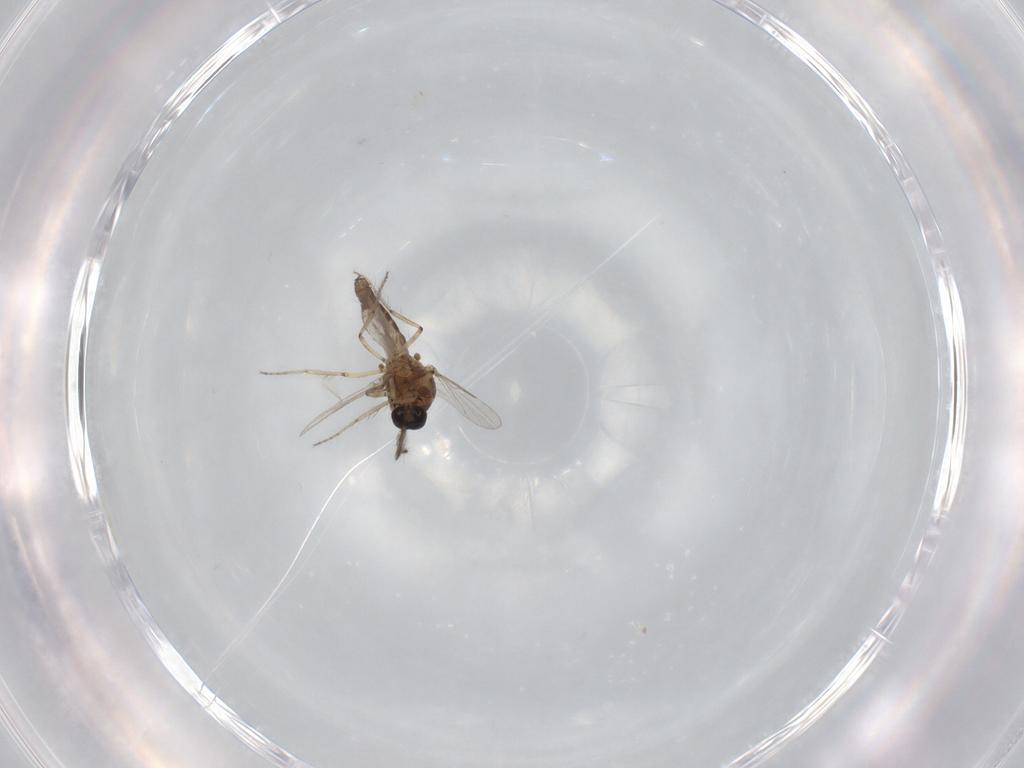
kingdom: Animalia
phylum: Arthropoda
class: Insecta
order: Diptera
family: Ceratopogonidae
